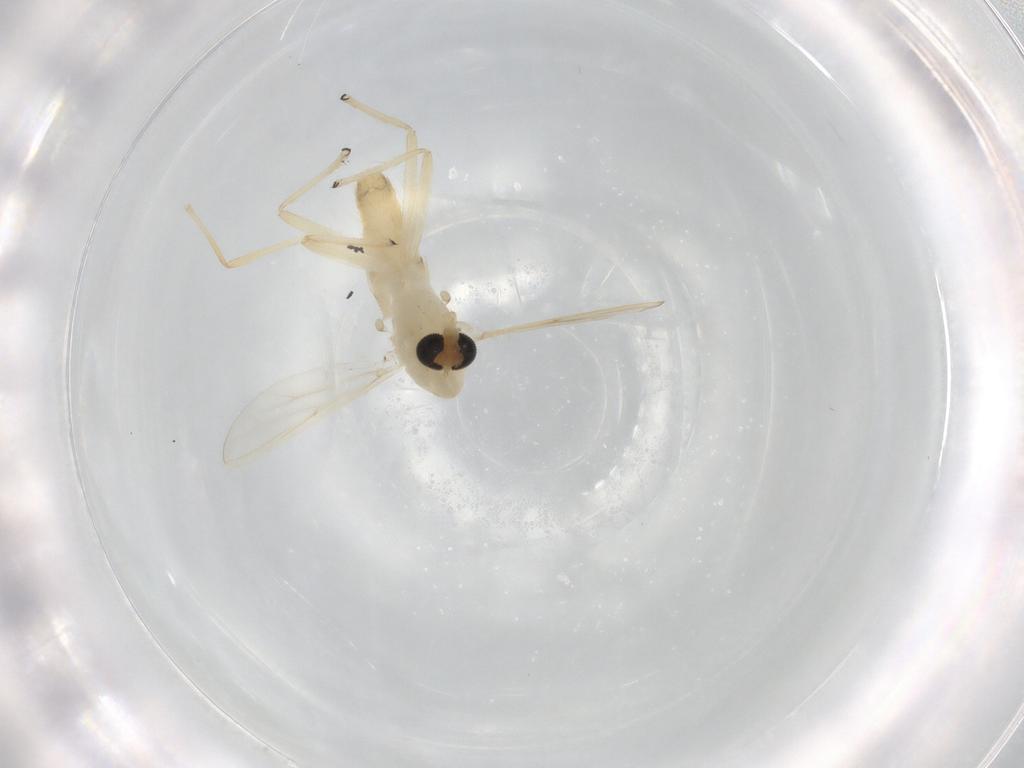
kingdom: Animalia
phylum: Arthropoda
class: Insecta
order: Diptera
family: Chironomidae
